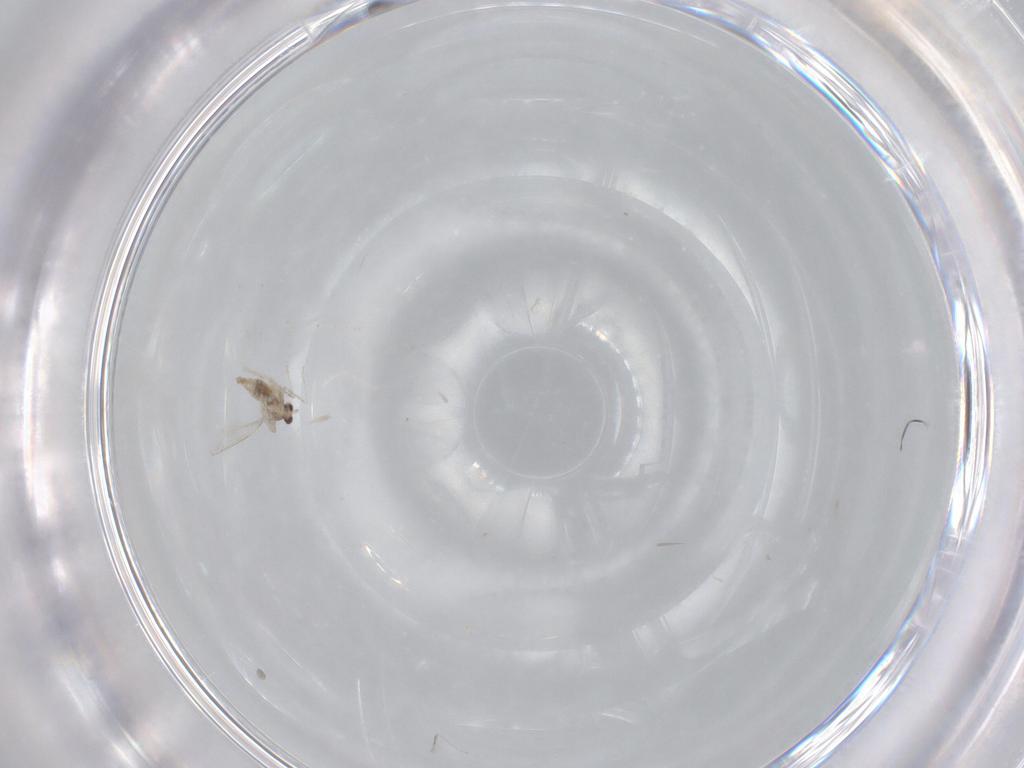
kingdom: Animalia
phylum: Arthropoda
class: Insecta
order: Diptera
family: Cecidomyiidae
